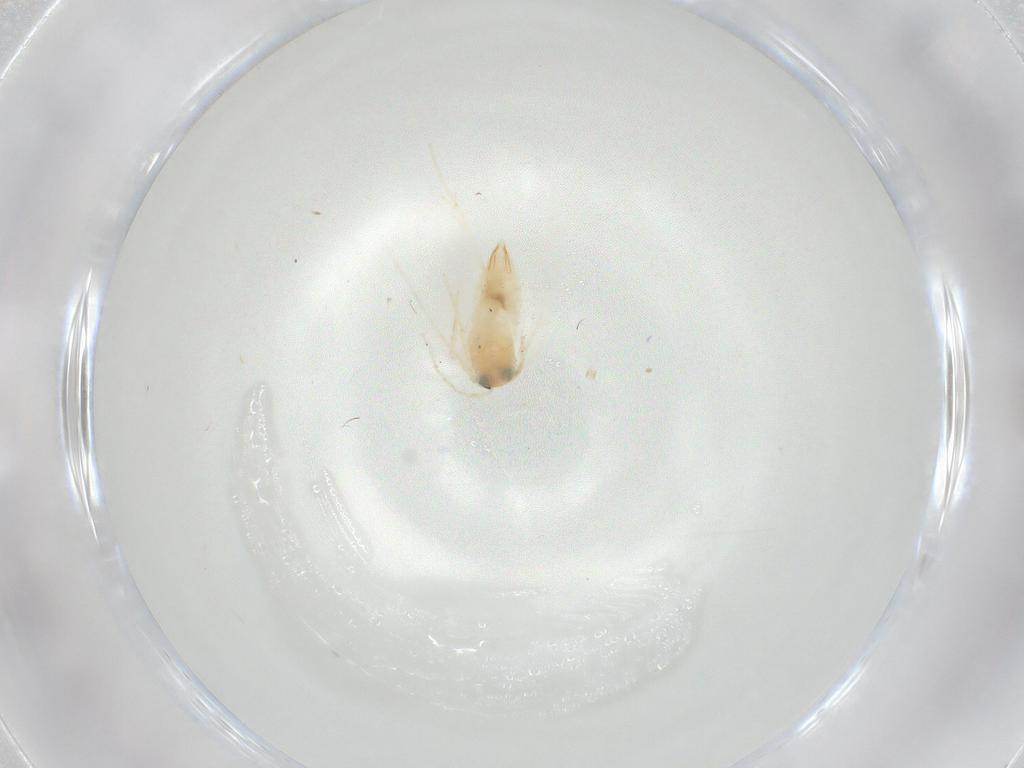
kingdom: Animalia
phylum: Arthropoda
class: Insecta
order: Lepidoptera
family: Nepticulidae
